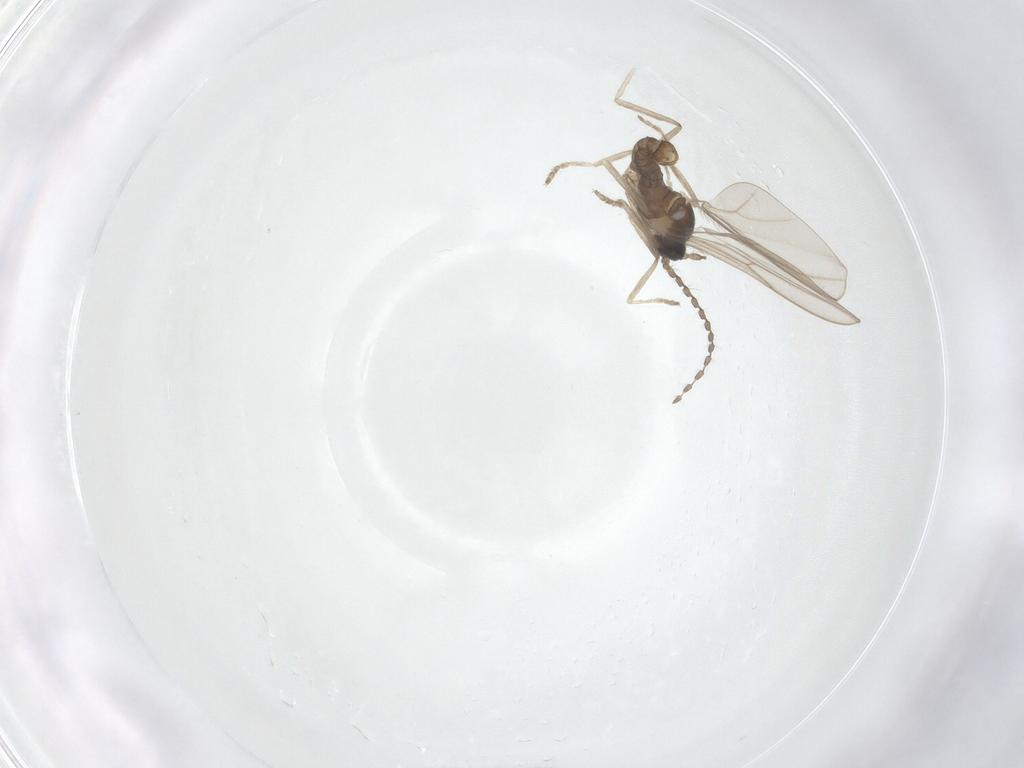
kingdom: Animalia
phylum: Arthropoda
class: Insecta
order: Diptera
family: Cecidomyiidae
